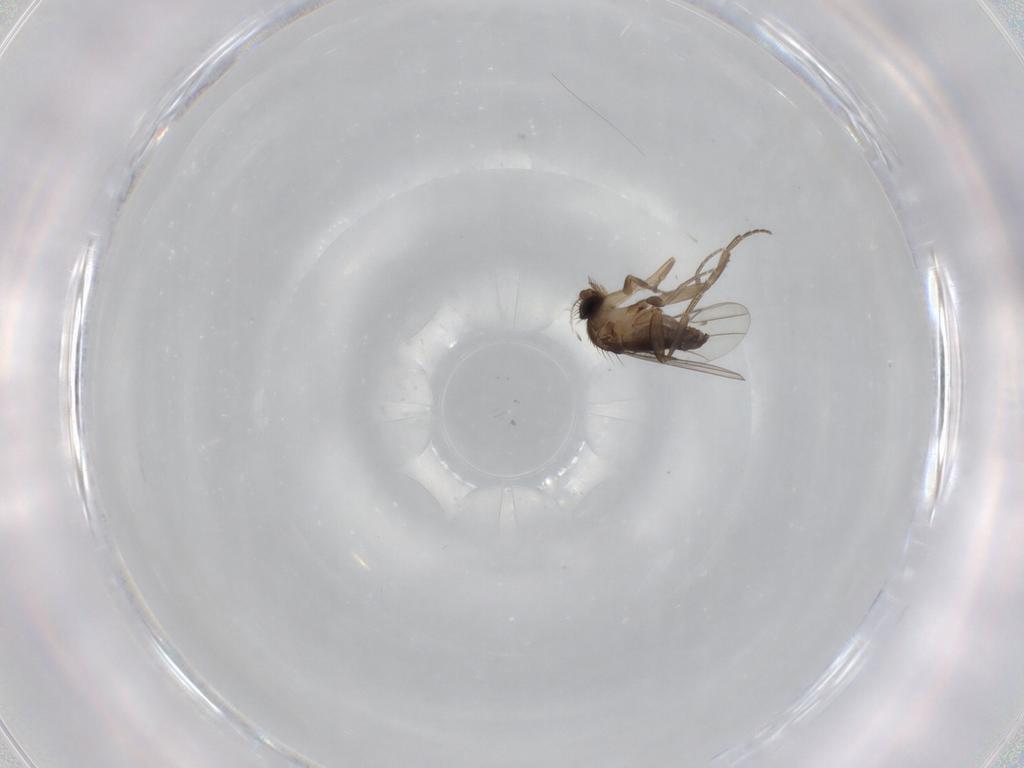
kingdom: Animalia
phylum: Arthropoda
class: Insecta
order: Diptera
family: Phoridae
